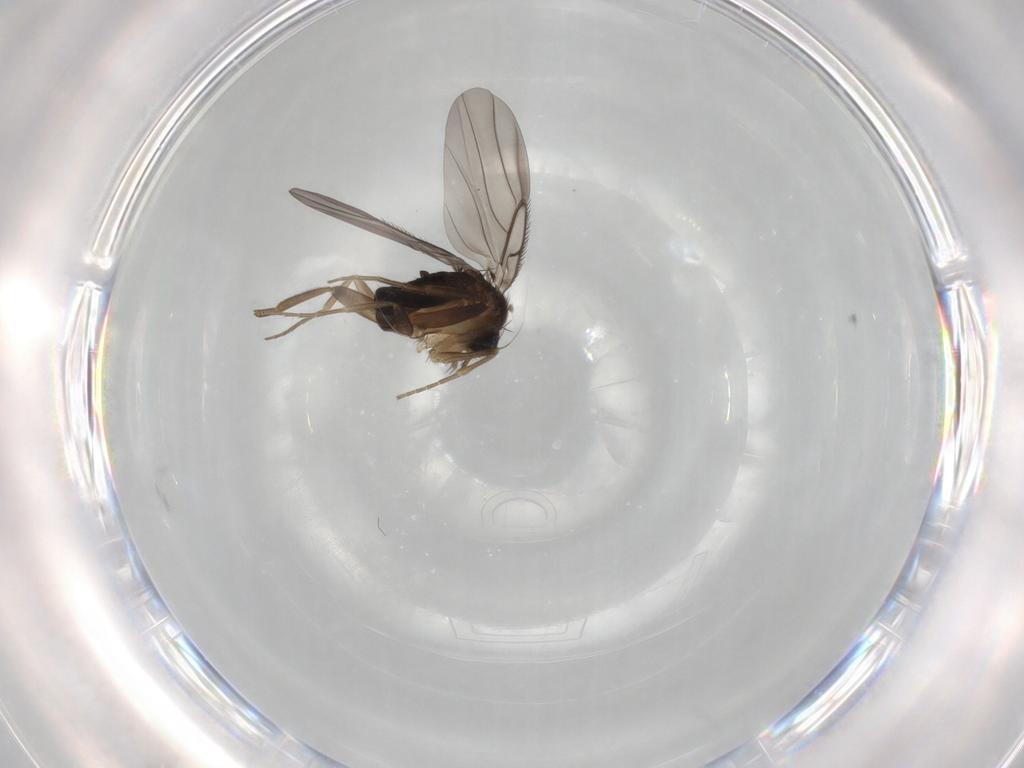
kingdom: Animalia
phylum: Arthropoda
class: Insecta
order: Diptera
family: Phoridae
